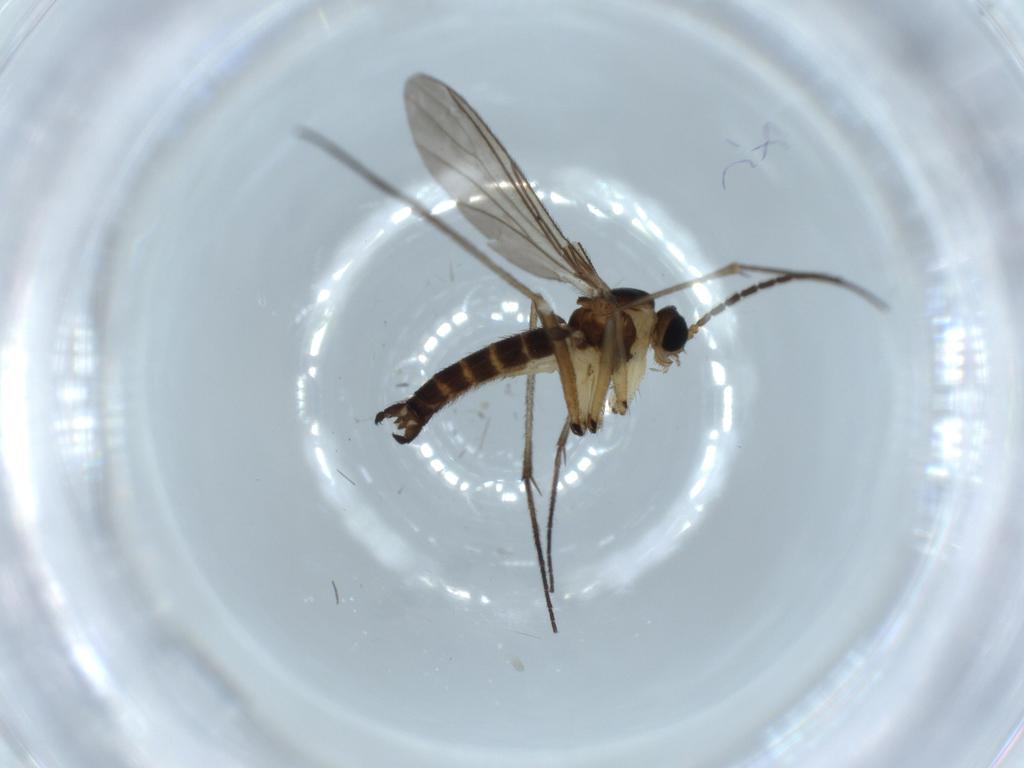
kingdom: Animalia
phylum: Arthropoda
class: Insecta
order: Diptera
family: Sciaridae
